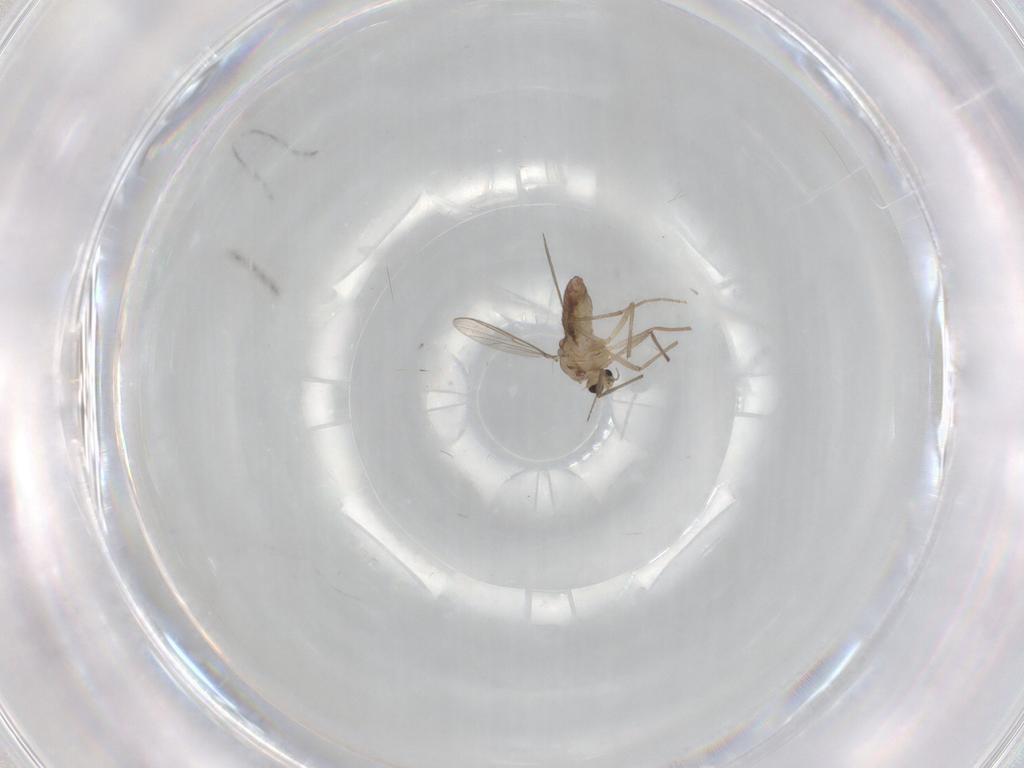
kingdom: Animalia
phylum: Arthropoda
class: Insecta
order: Diptera
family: Chironomidae
